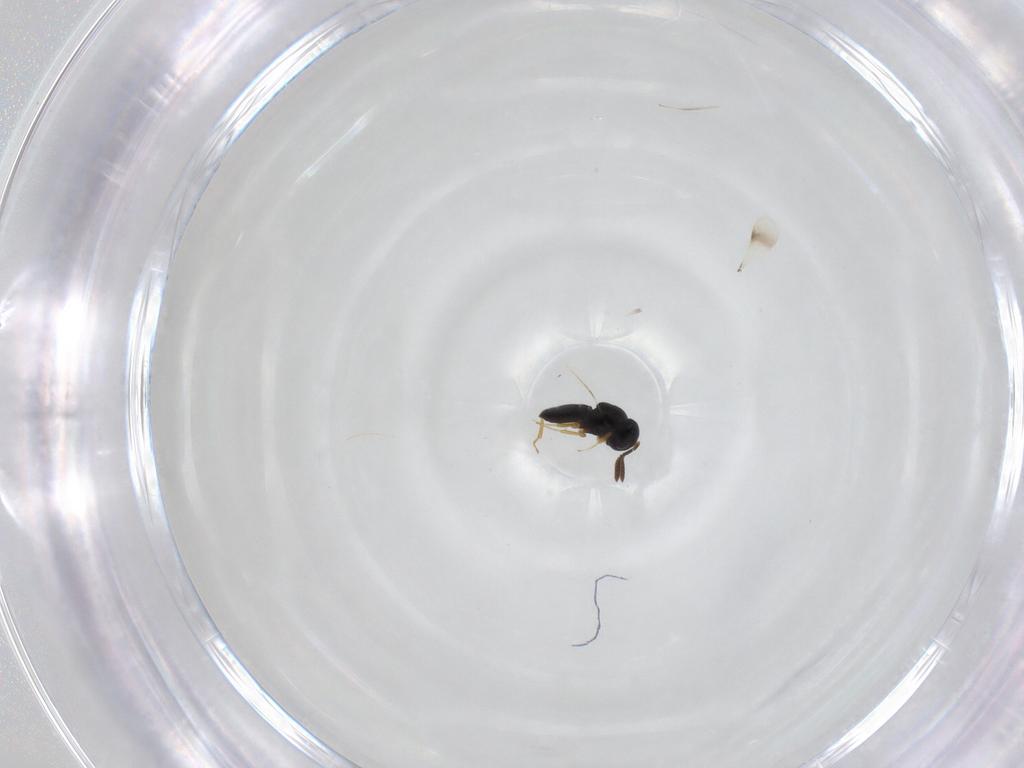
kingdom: Animalia
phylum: Arthropoda
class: Insecta
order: Hymenoptera
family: Scelionidae
